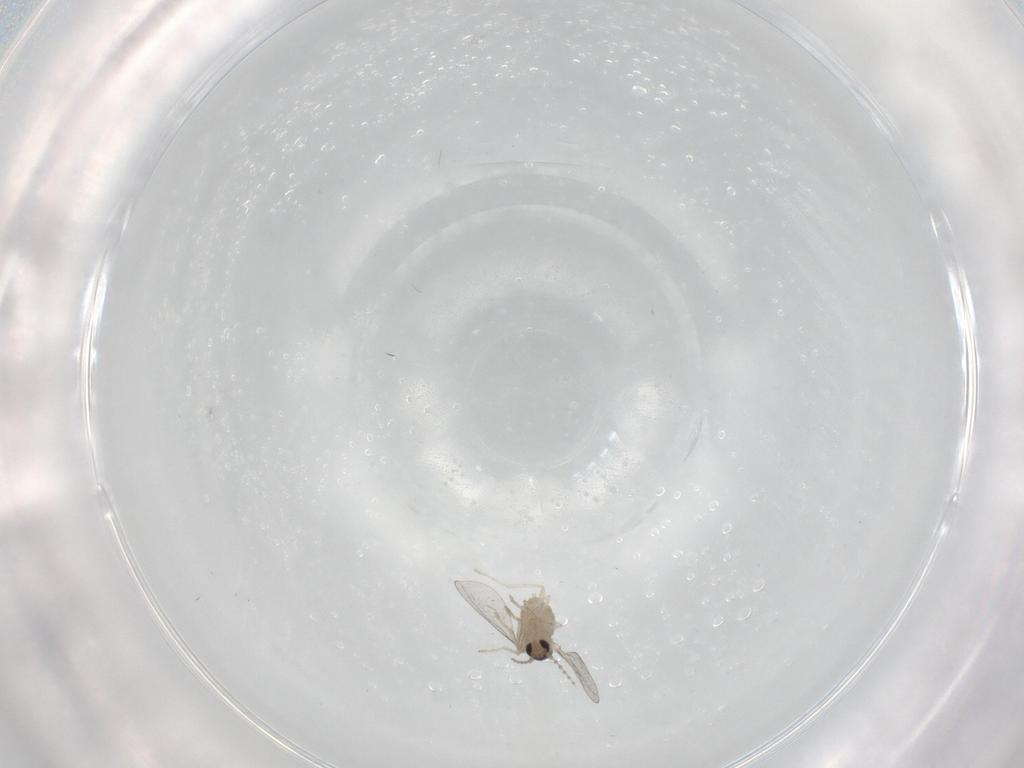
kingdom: Animalia
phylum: Arthropoda
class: Insecta
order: Diptera
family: Cecidomyiidae
